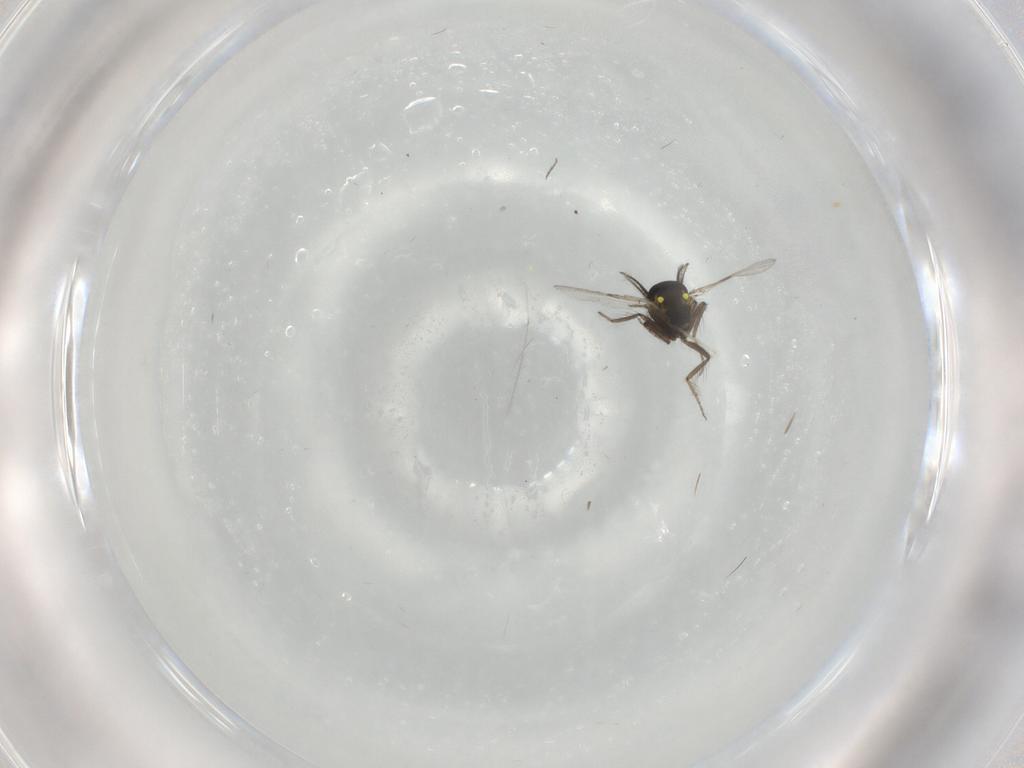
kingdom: Animalia
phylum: Arthropoda
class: Insecta
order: Diptera
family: Ceratopogonidae
